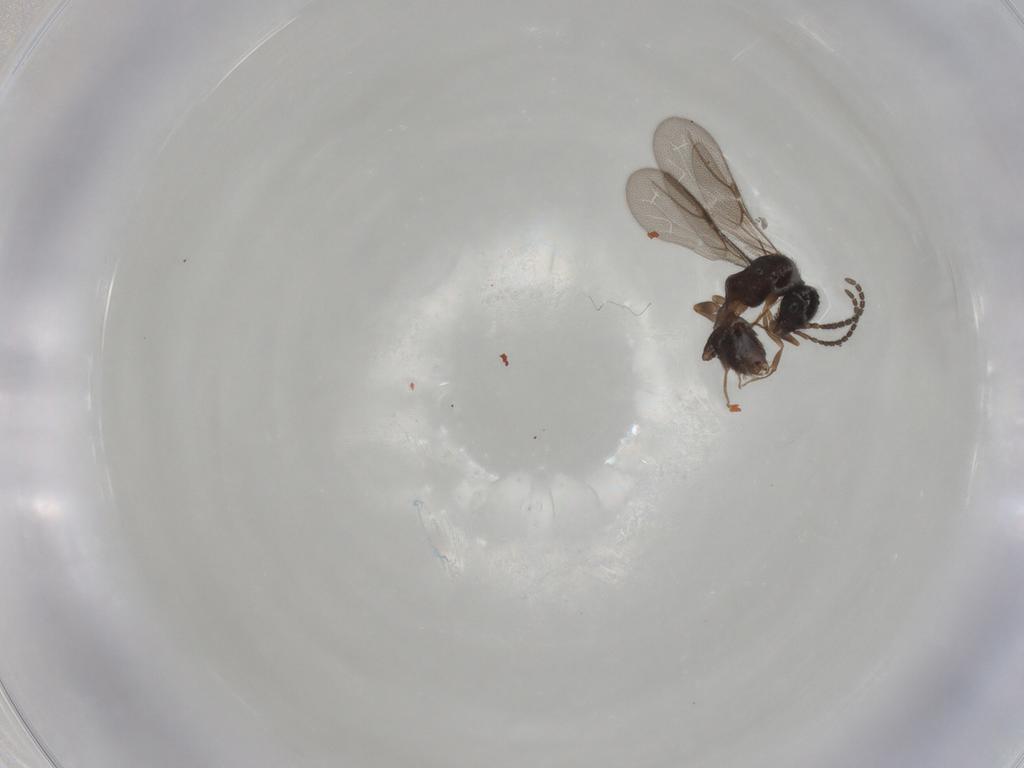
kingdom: Animalia
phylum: Arthropoda
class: Insecta
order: Hymenoptera
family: Bethylidae
